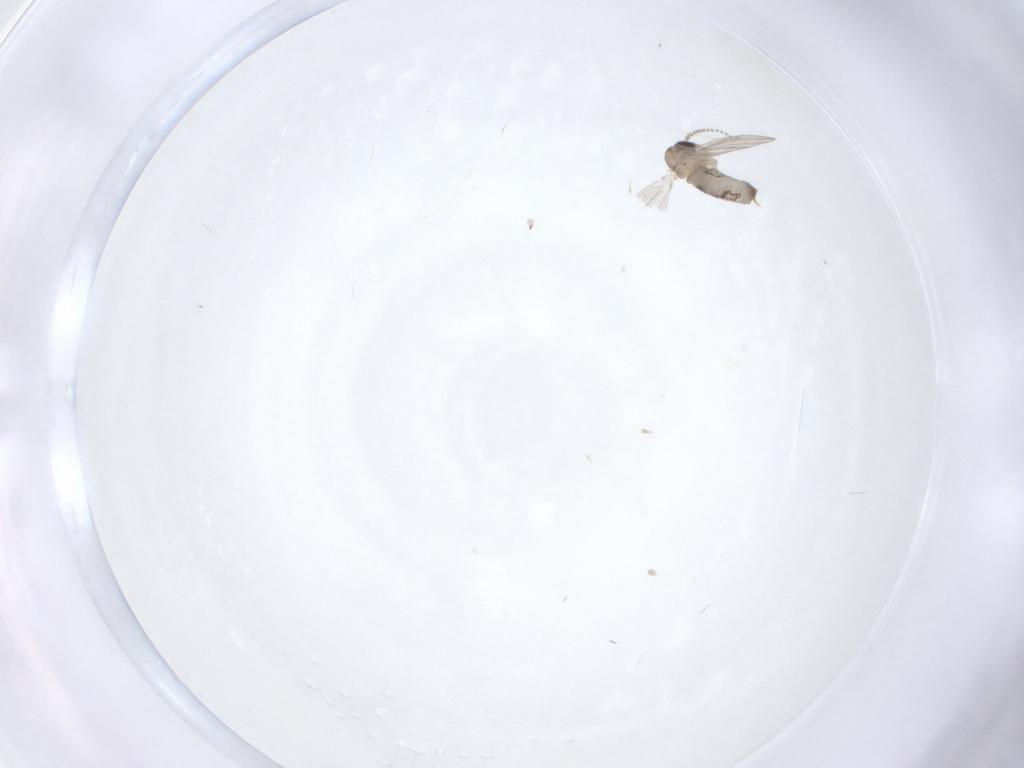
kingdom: Animalia
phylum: Arthropoda
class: Insecta
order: Diptera
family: Psychodidae
